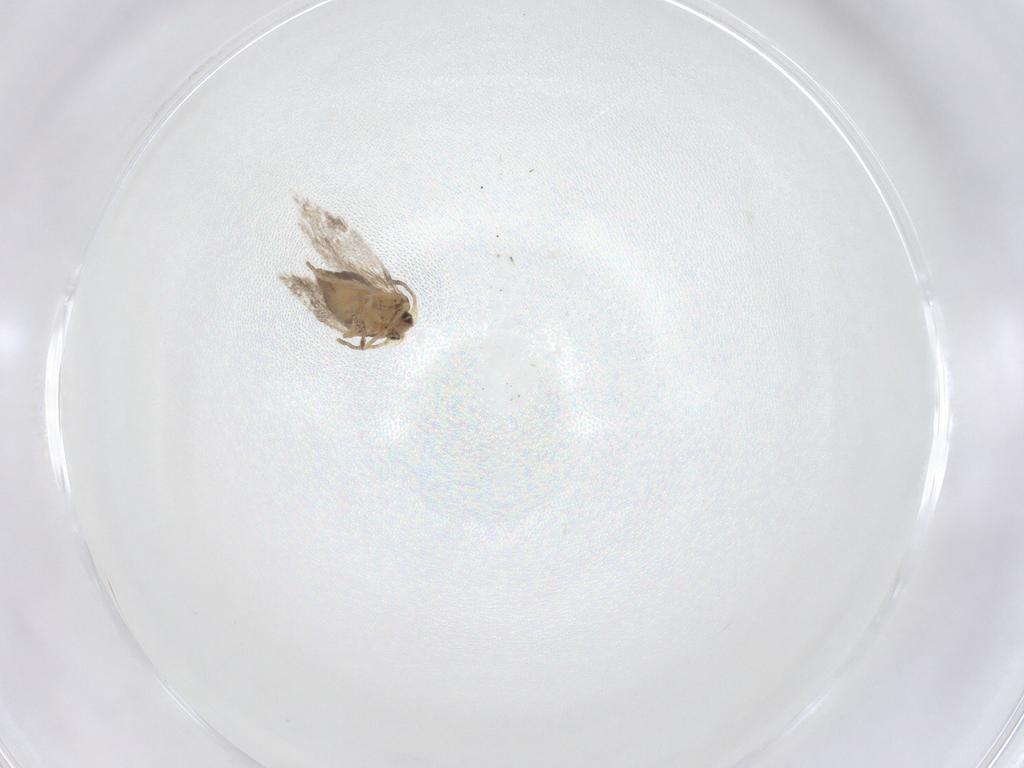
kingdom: Animalia
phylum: Arthropoda
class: Insecta
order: Lepidoptera
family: Nepticulidae
